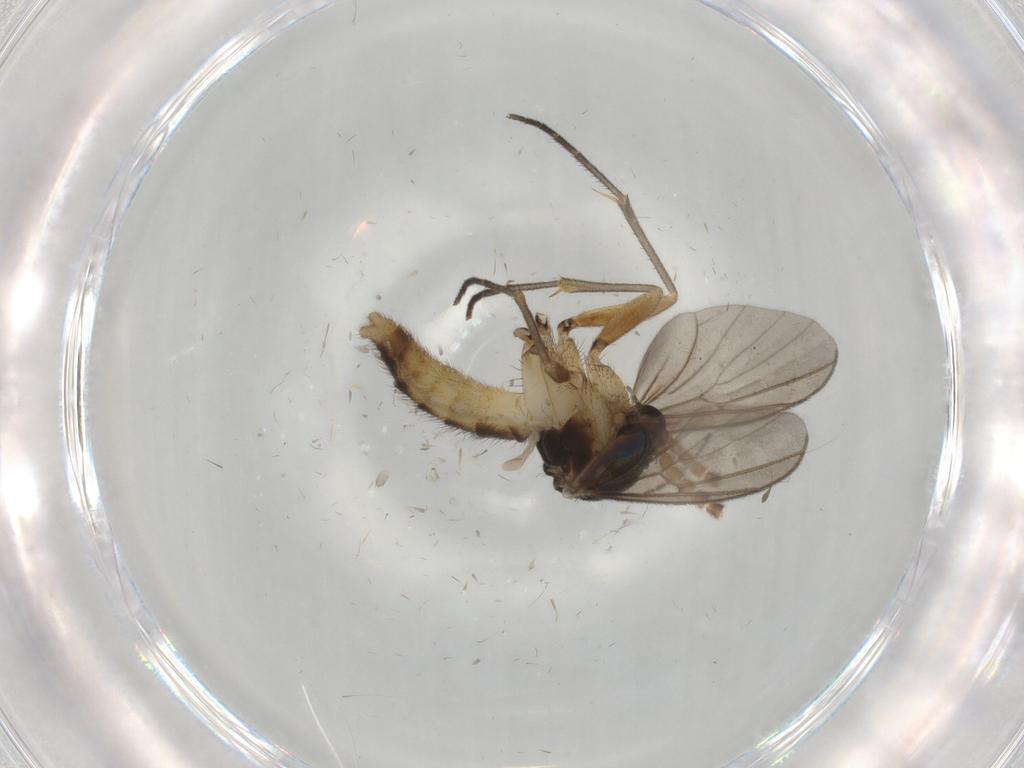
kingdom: Animalia
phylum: Arthropoda
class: Insecta
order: Diptera
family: Cecidomyiidae
